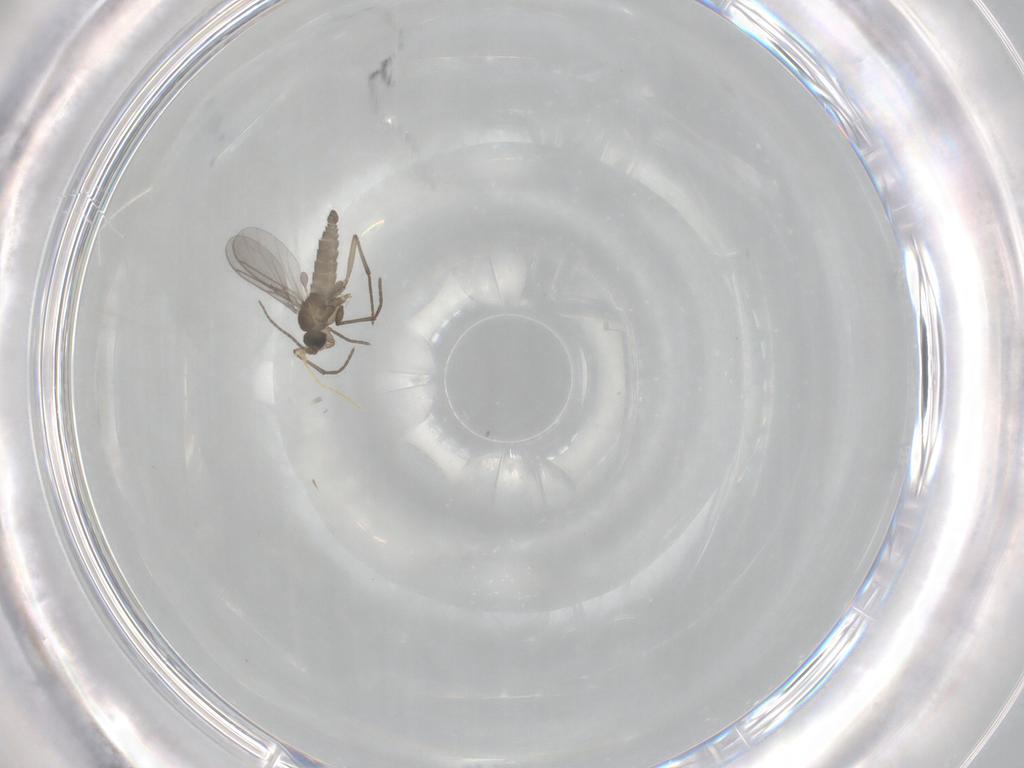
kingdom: Animalia
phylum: Arthropoda
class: Insecta
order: Diptera
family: Sciaridae
